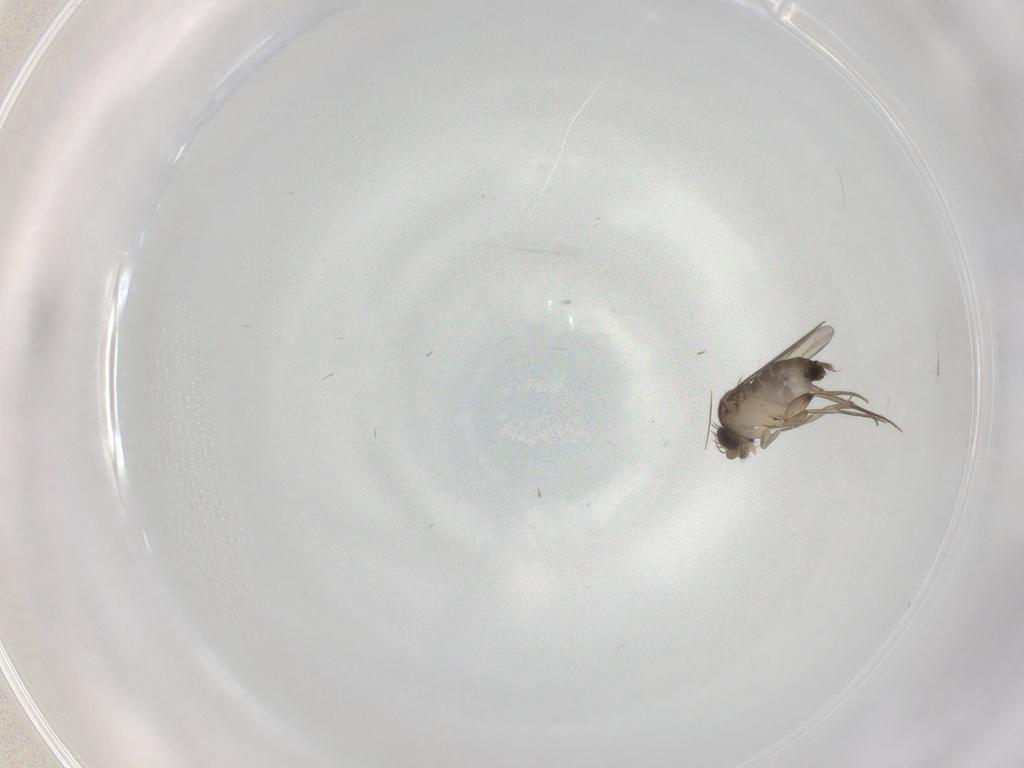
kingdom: Animalia
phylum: Arthropoda
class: Insecta
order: Diptera
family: Phoridae
